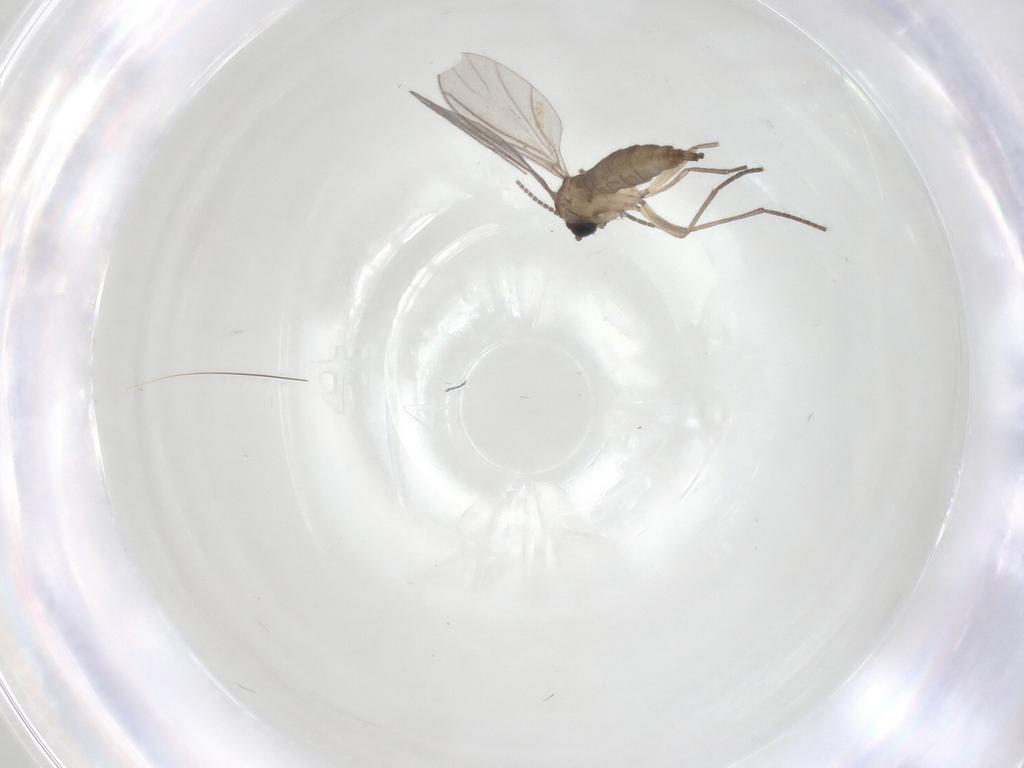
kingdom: Animalia
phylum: Arthropoda
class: Insecta
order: Diptera
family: Sciaridae
